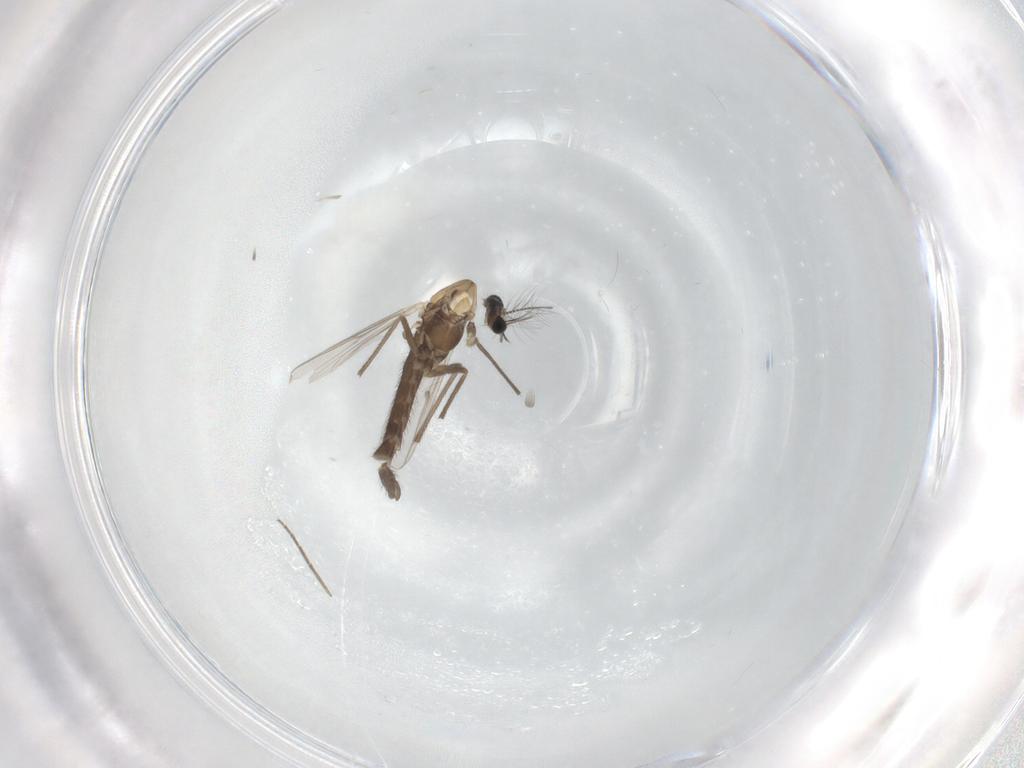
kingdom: Animalia
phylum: Arthropoda
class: Insecta
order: Diptera
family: Chironomidae
